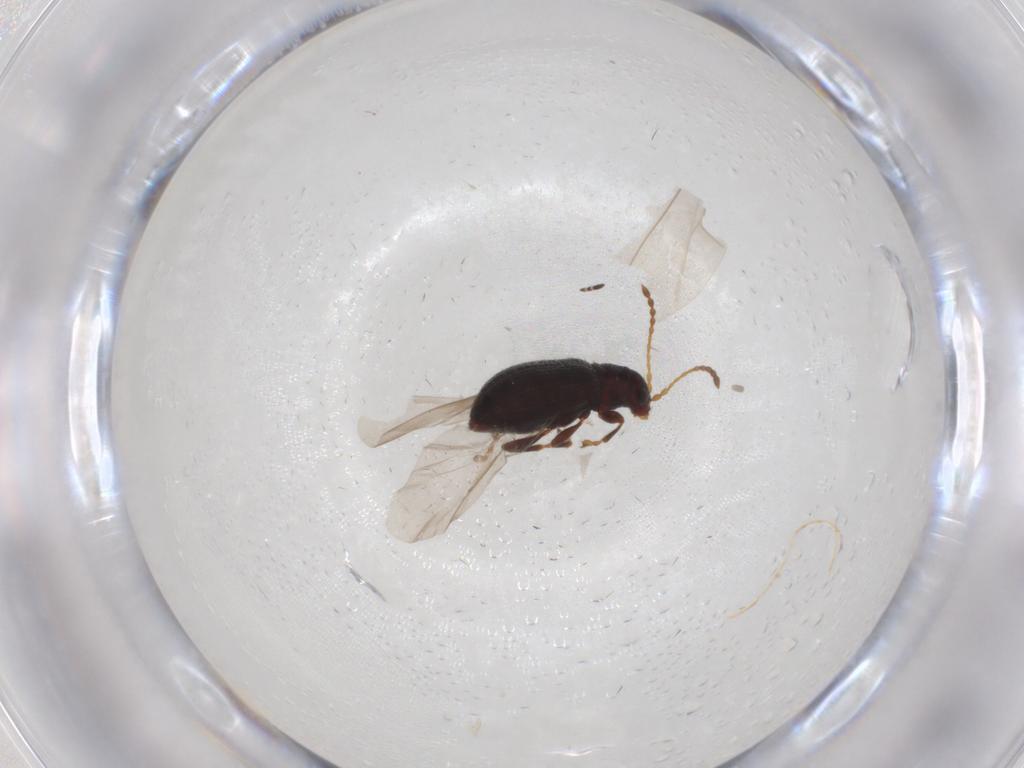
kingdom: Animalia
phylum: Arthropoda
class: Insecta
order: Coleoptera
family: Chrysomelidae
